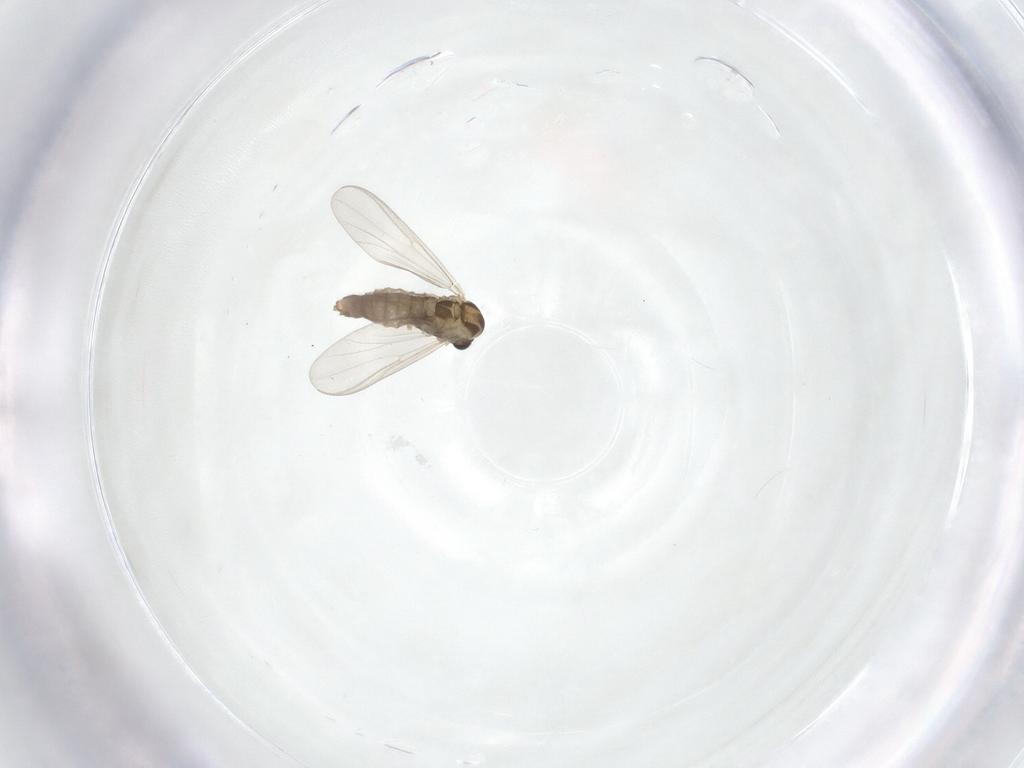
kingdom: Animalia
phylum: Arthropoda
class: Insecta
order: Diptera
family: Chironomidae
